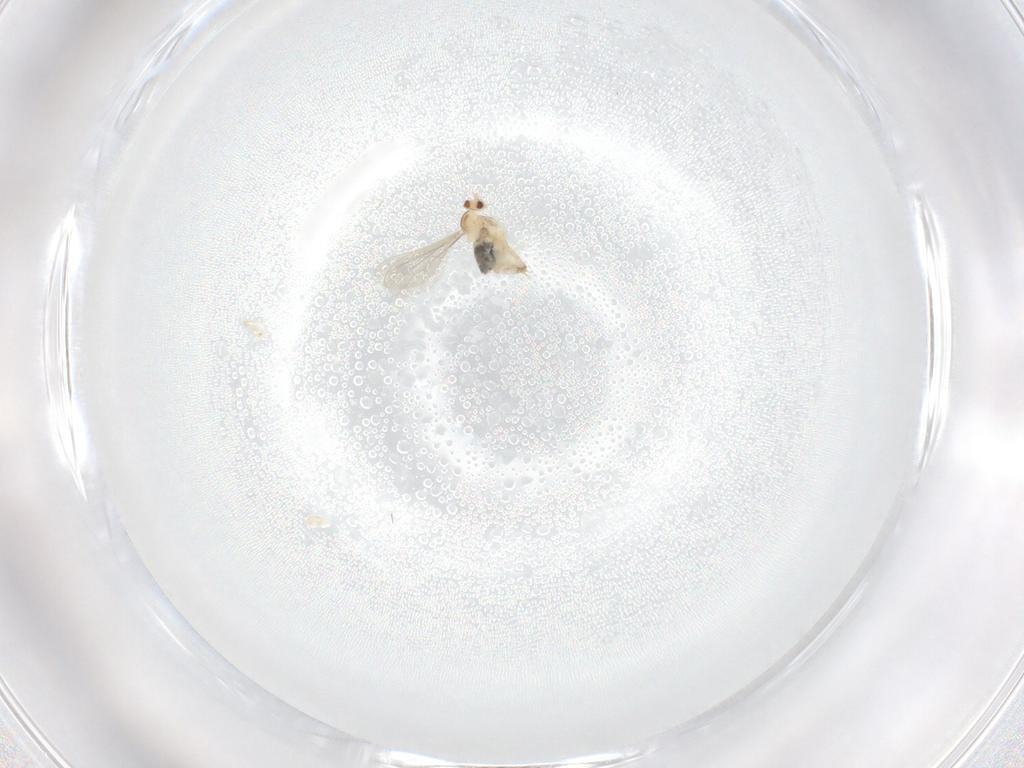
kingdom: Animalia
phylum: Arthropoda
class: Insecta
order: Diptera
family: Cecidomyiidae
